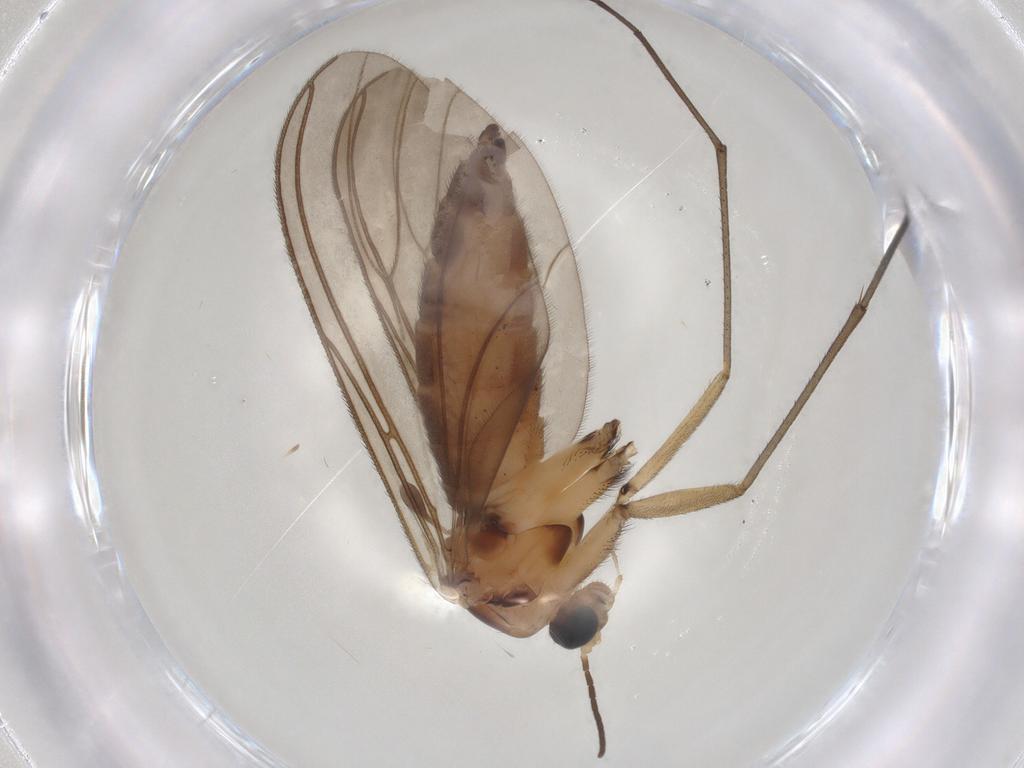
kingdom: Animalia
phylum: Arthropoda
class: Insecta
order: Diptera
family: Sciaridae
